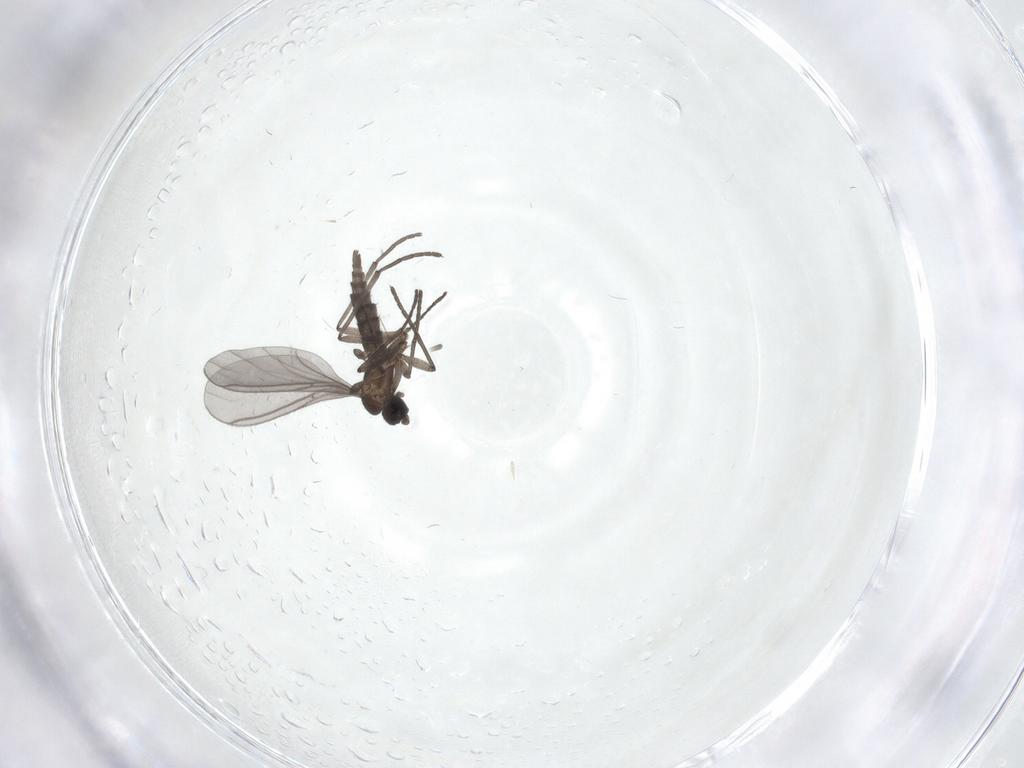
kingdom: Animalia
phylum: Arthropoda
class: Insecta
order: Diptera
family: Sciaridae
